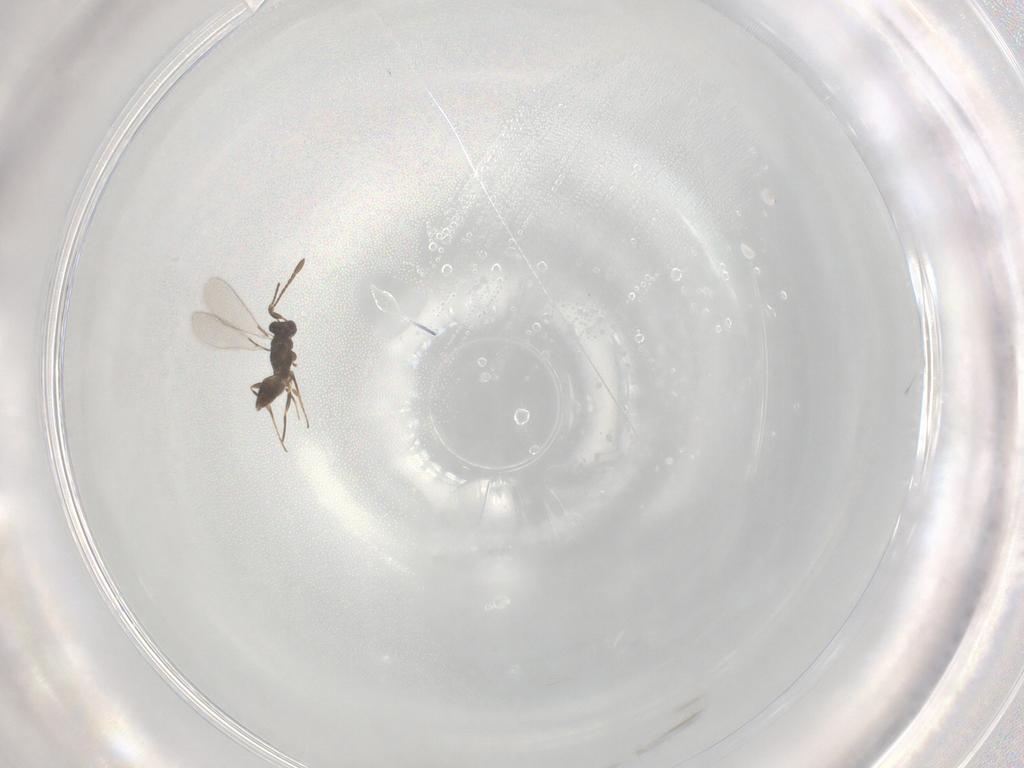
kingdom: Animalia
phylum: Arthropoda
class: Insecta
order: Hymenoptera
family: Mymaridae
